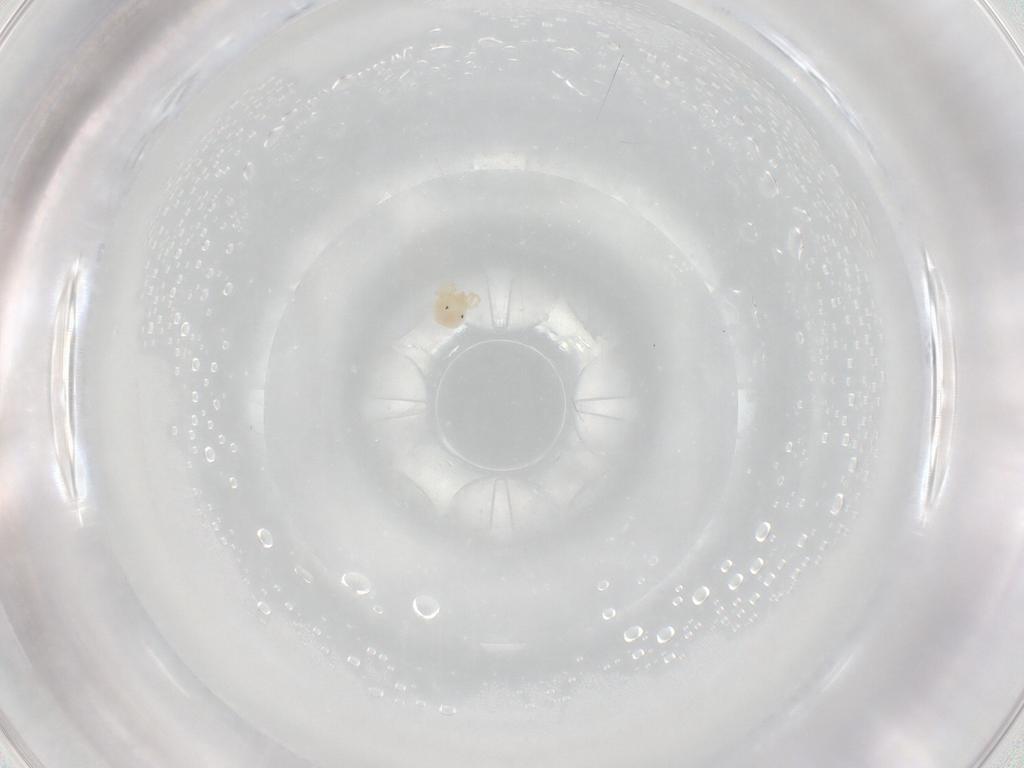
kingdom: Animalia
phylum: Arthropoda
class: Arachnida
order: Trombidiformes
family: Sperchontidae
